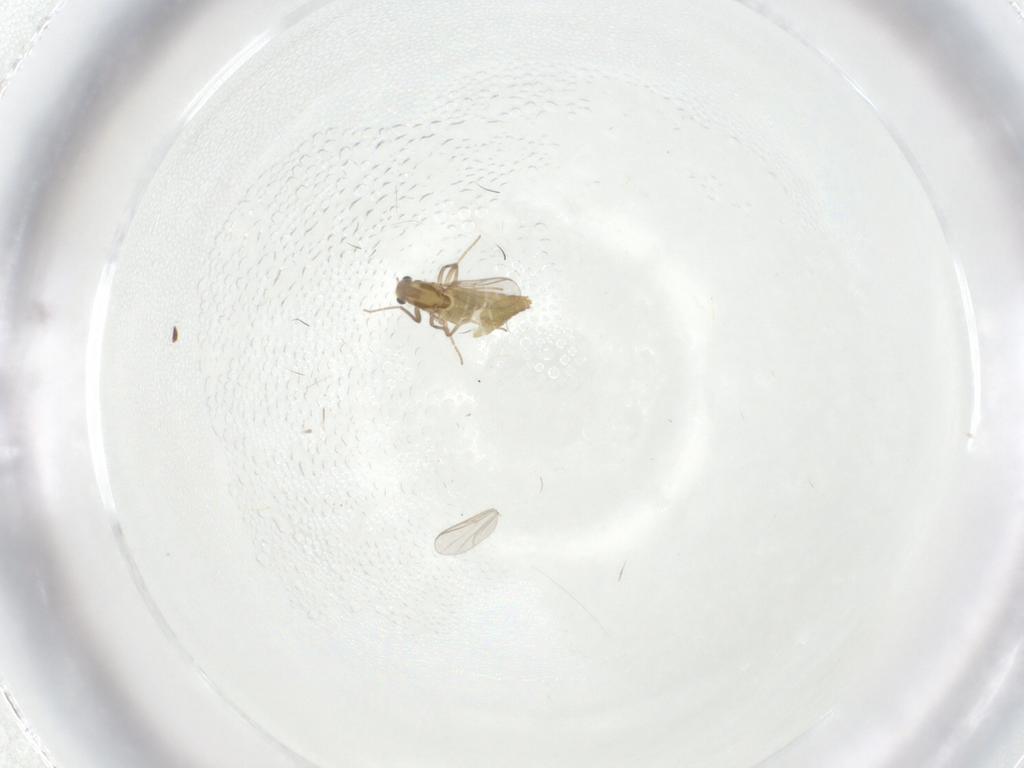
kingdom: Animalia
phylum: Arthropoda
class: Insecta
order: Diptera
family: Chironomidae
